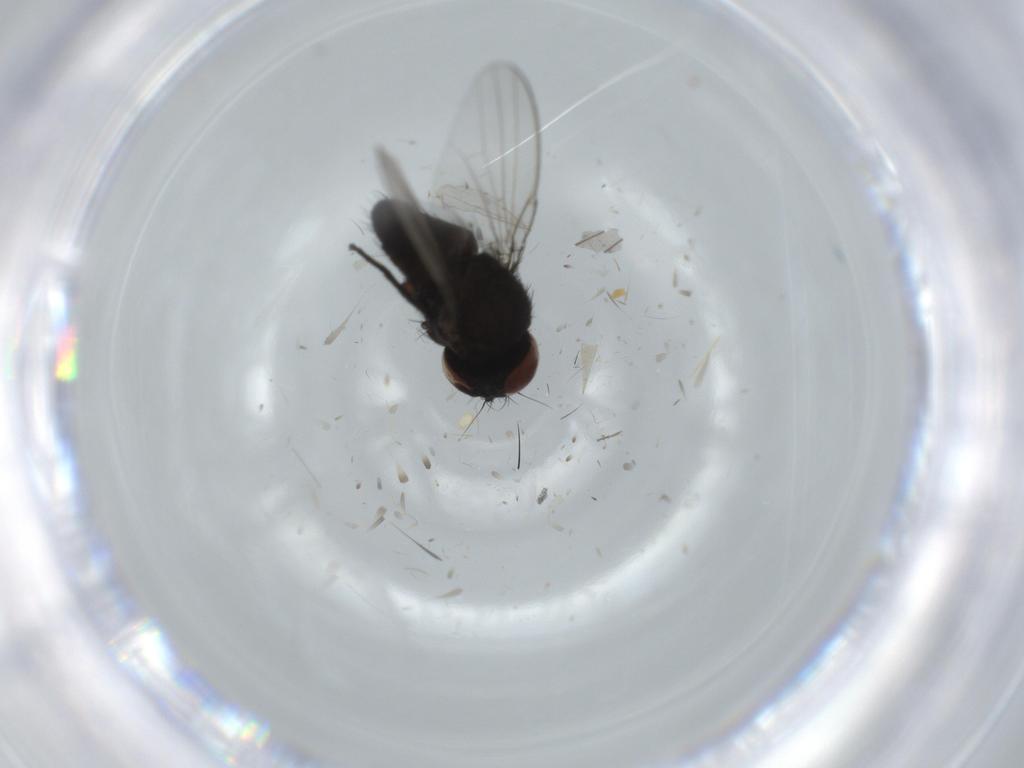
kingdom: Animalia
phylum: Arthropoda
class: Insecta
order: Diptera
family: Milichiidae
